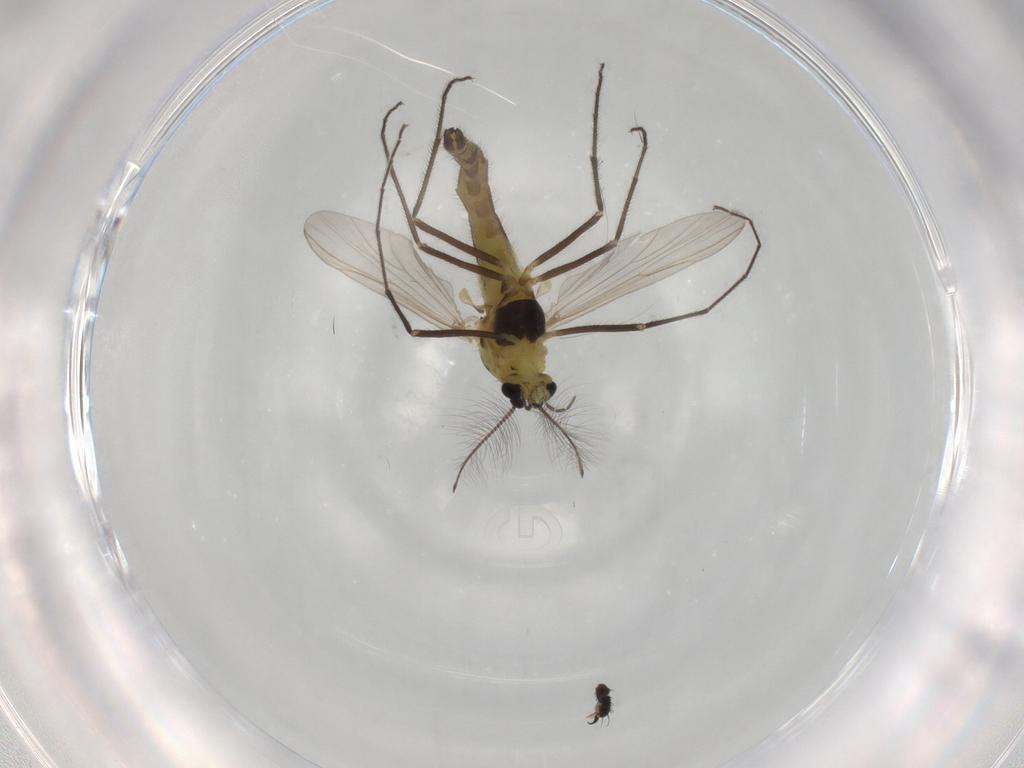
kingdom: Animalia
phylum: Arthropoda
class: Insecta
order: Diptera
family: Chironomidae
